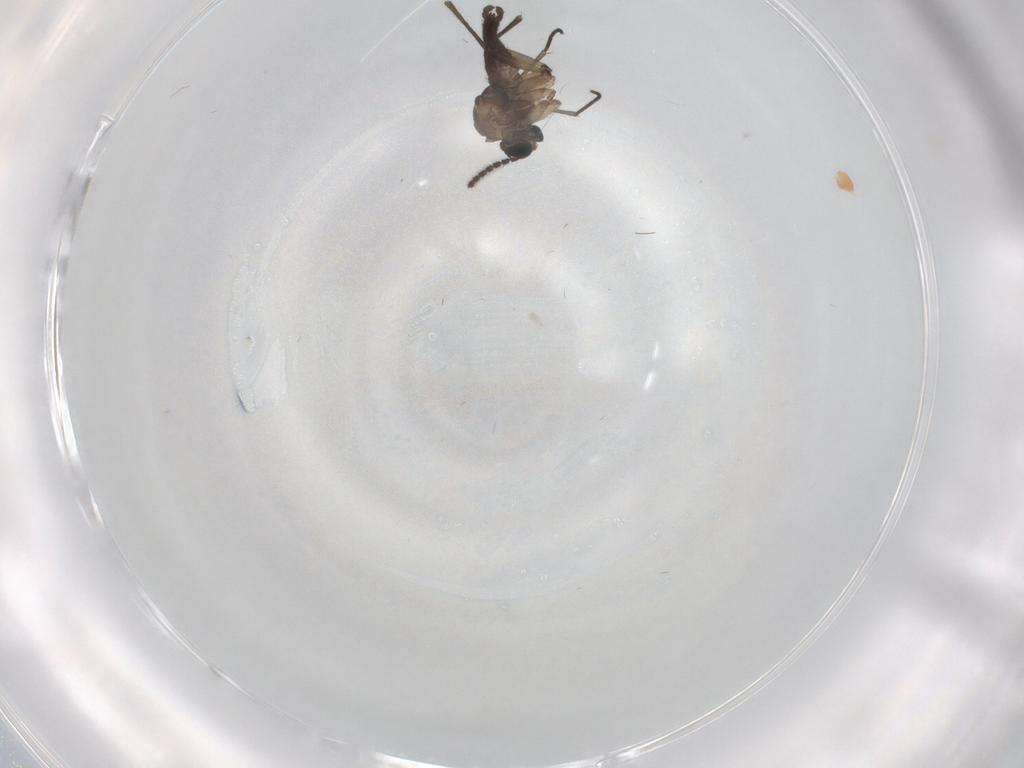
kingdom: Animalia
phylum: Arthropoda
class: Insecta
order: Diptera
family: Sciaridae
